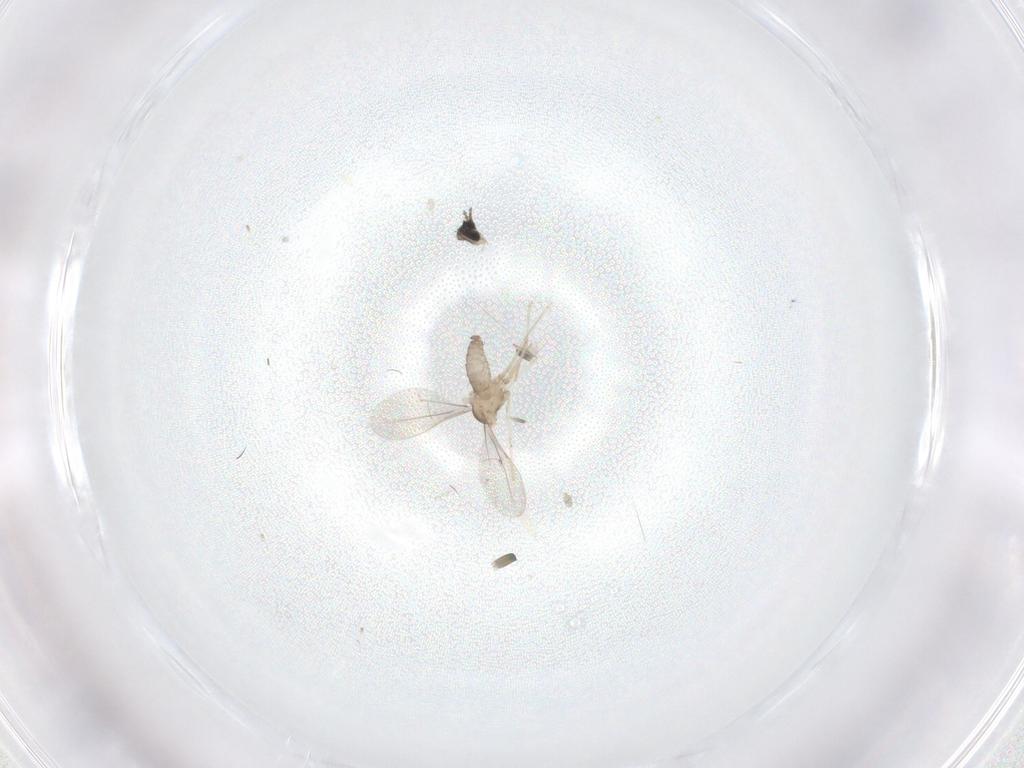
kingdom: Animalia
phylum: Arthropoda
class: Insecta
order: Diptera
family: Cecidomyiidae
